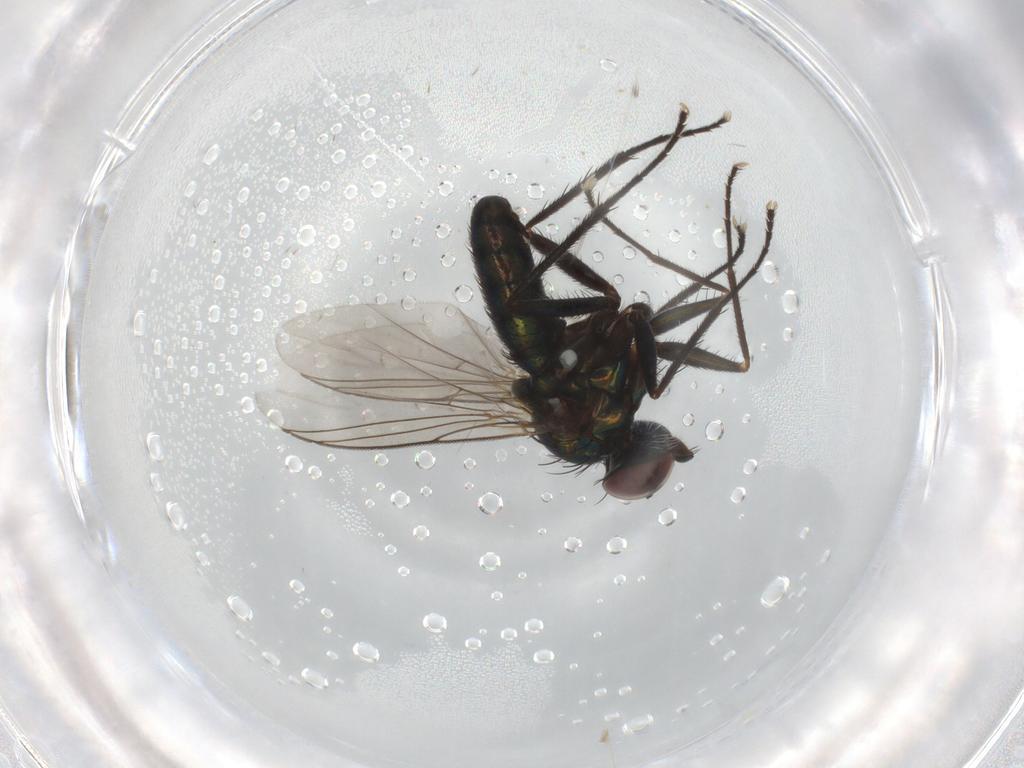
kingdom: Animalia
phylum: Arthropoda
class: Insecta
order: Diptera
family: Dolichopodidae
